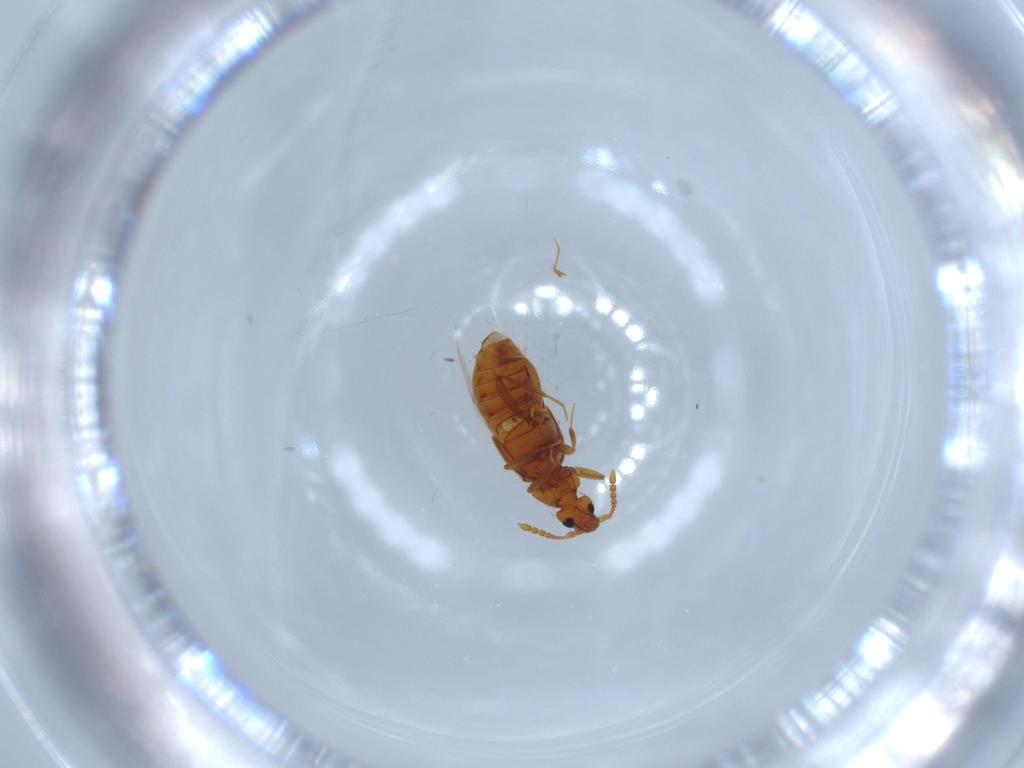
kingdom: Animalia
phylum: Arthropoda
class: Insecta
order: Coleoptera
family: Staphylinidae
